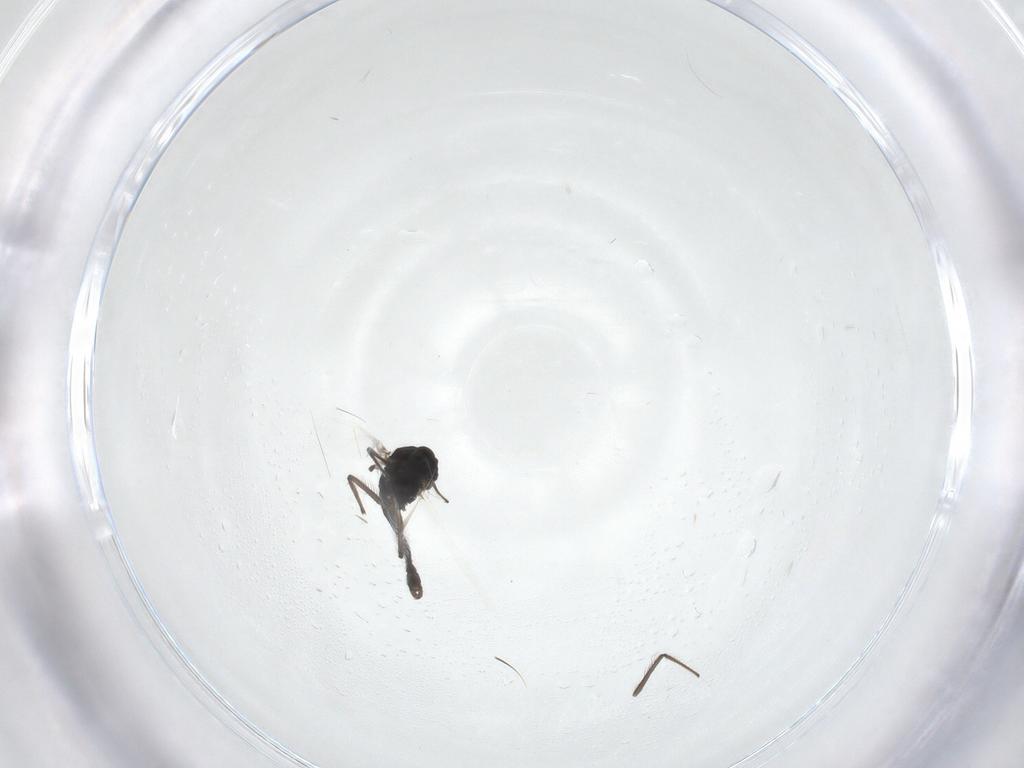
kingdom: Animalia
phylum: Arthropoda
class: Insecta
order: Diptera
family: Chironomidae
